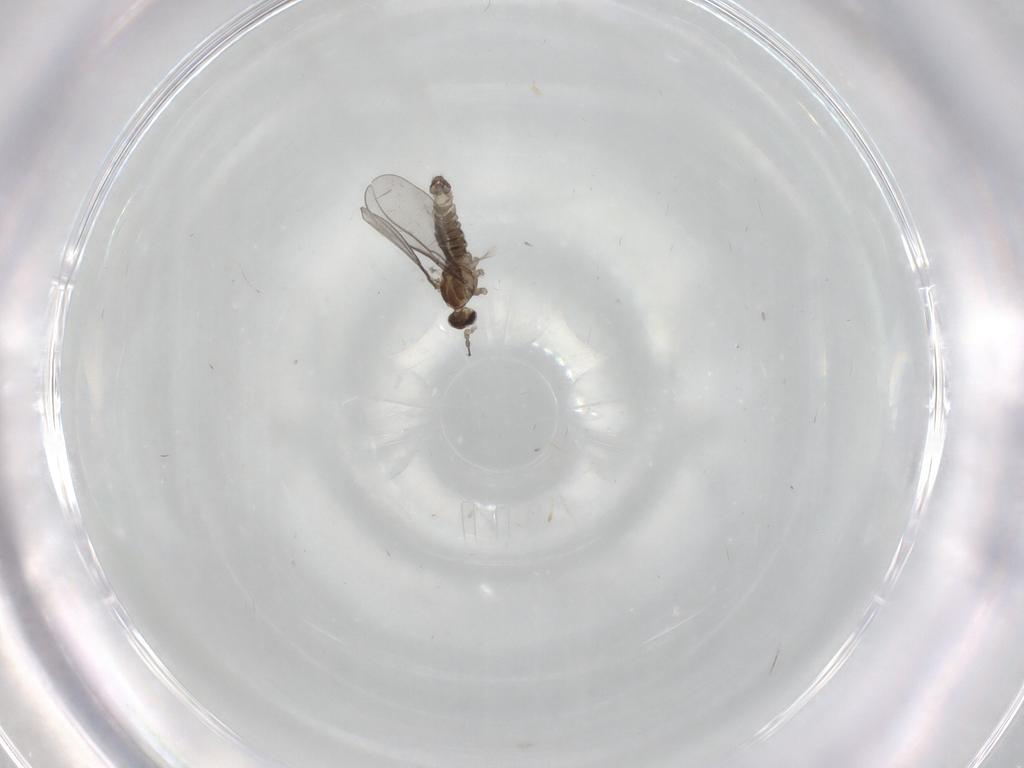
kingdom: Animalia
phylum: Arthropoda
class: Insecta
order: Diptera
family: Cecidomyiidae
